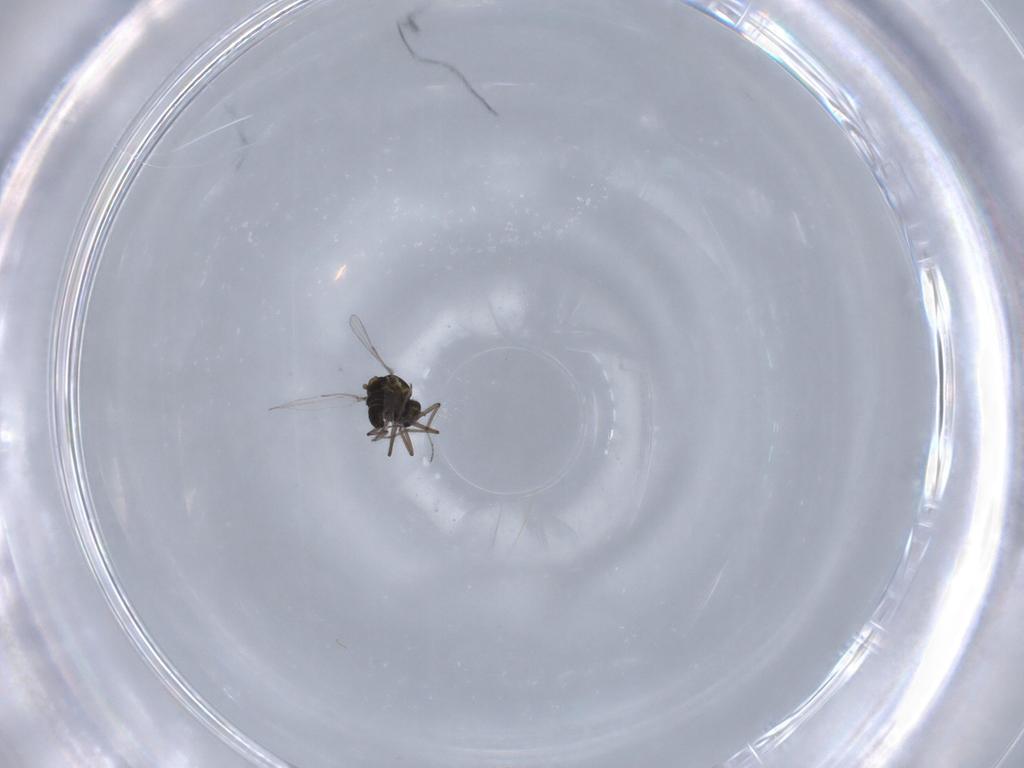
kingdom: Animalia
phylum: Arthropoda
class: Insecta
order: Diptera
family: Ceratopogonidae
